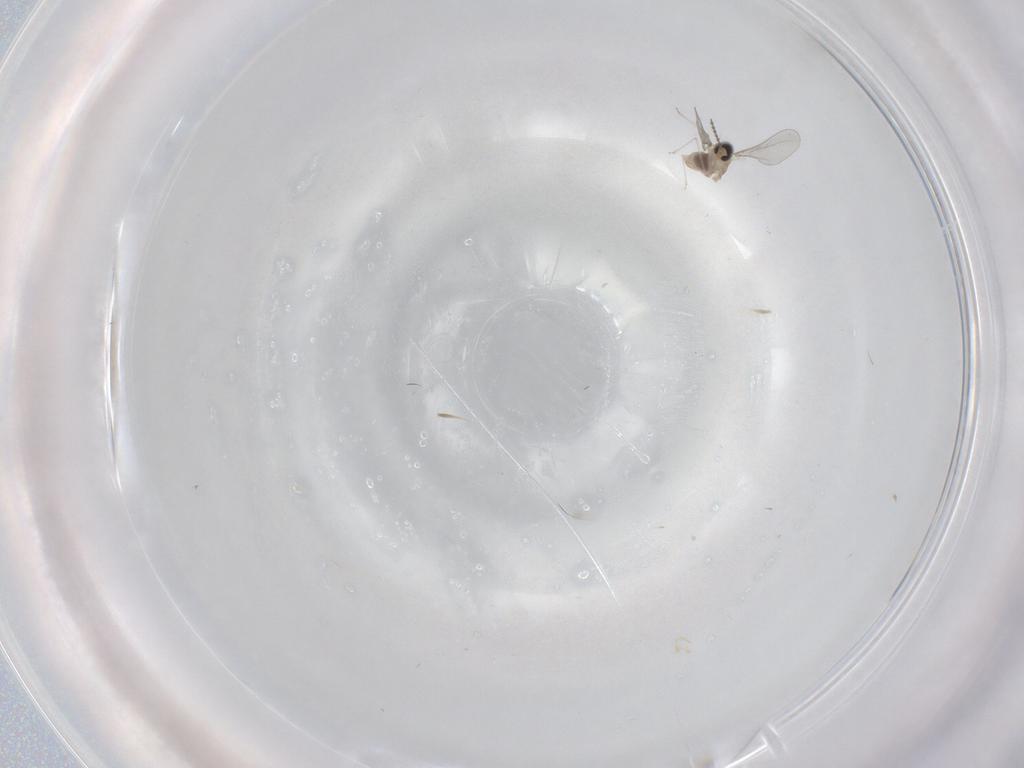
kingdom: Animalia
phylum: Arthropoda
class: Insecta
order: Diptera
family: Cecidomyiidae
